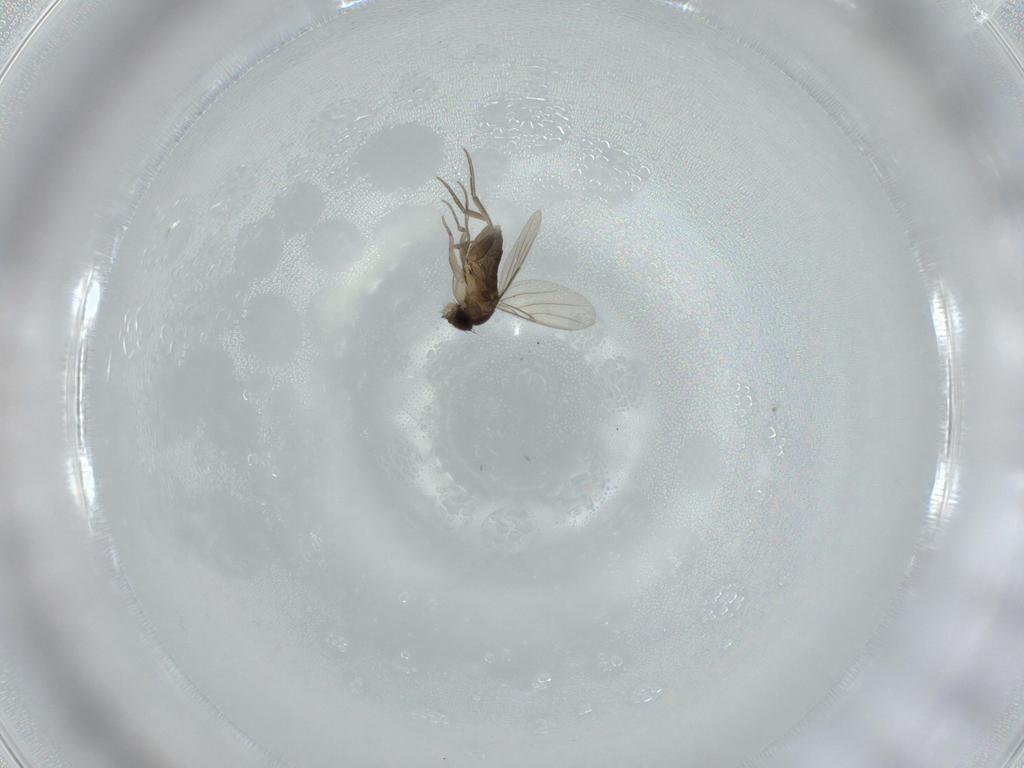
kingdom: Animalia
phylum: Arthropoda
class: Insecta
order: Diptera
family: Phoridae
